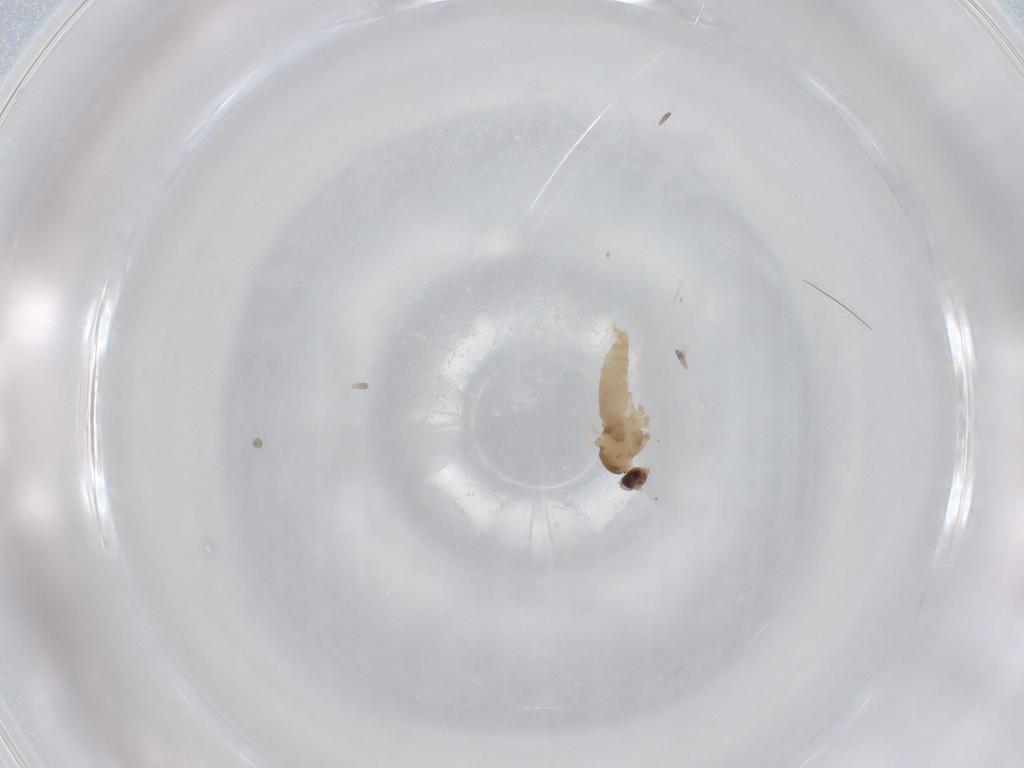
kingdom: Animalia
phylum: Arthropoda
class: Insecta
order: Diptera
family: Cecidomyiidae
